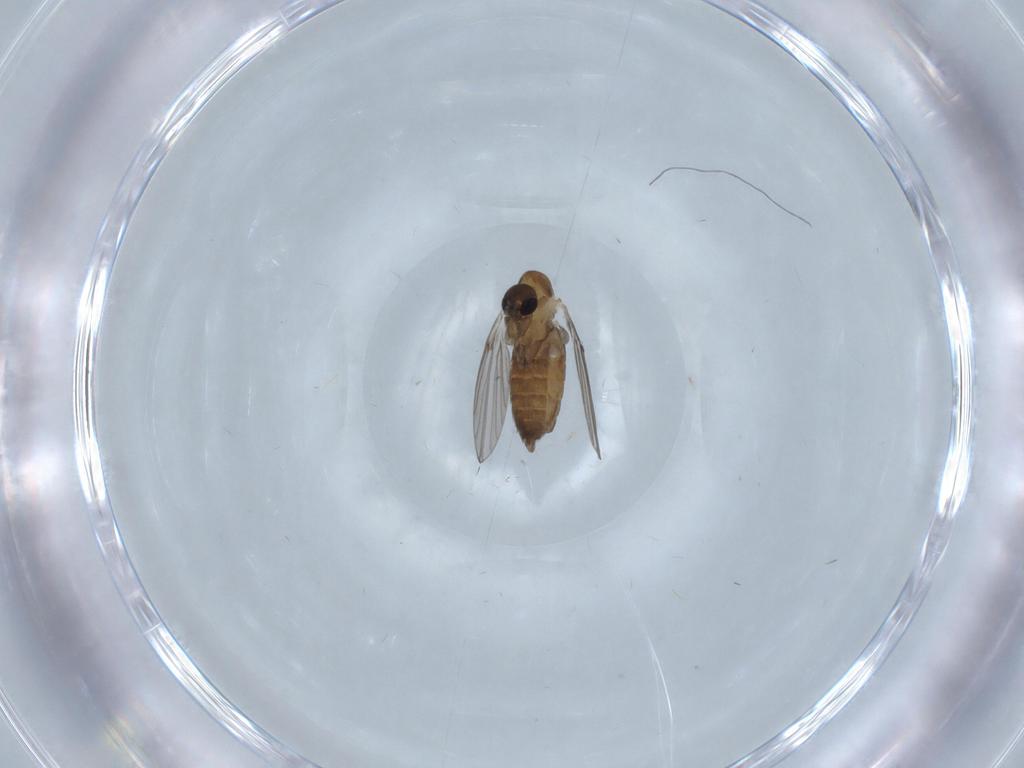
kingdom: Animalia
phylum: Arthropoda
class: Insecta
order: Diptera
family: Psychodidae
